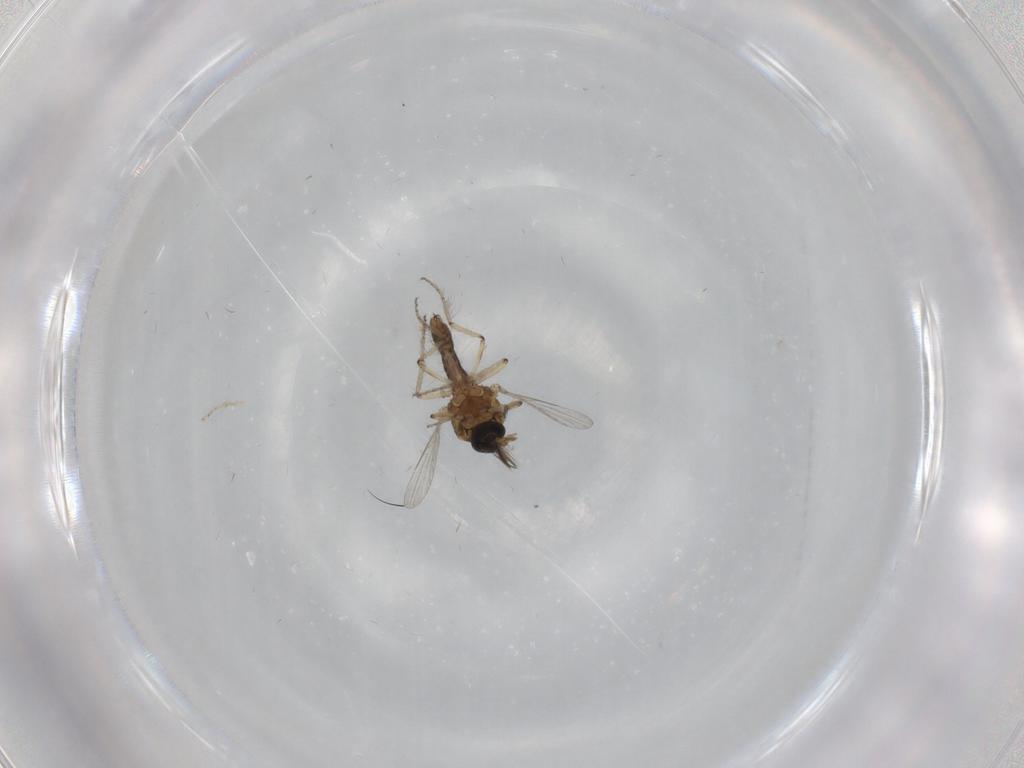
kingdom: Animalia
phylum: Arthropoda
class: Insecta
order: Diptera
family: Ceratopogonidae
